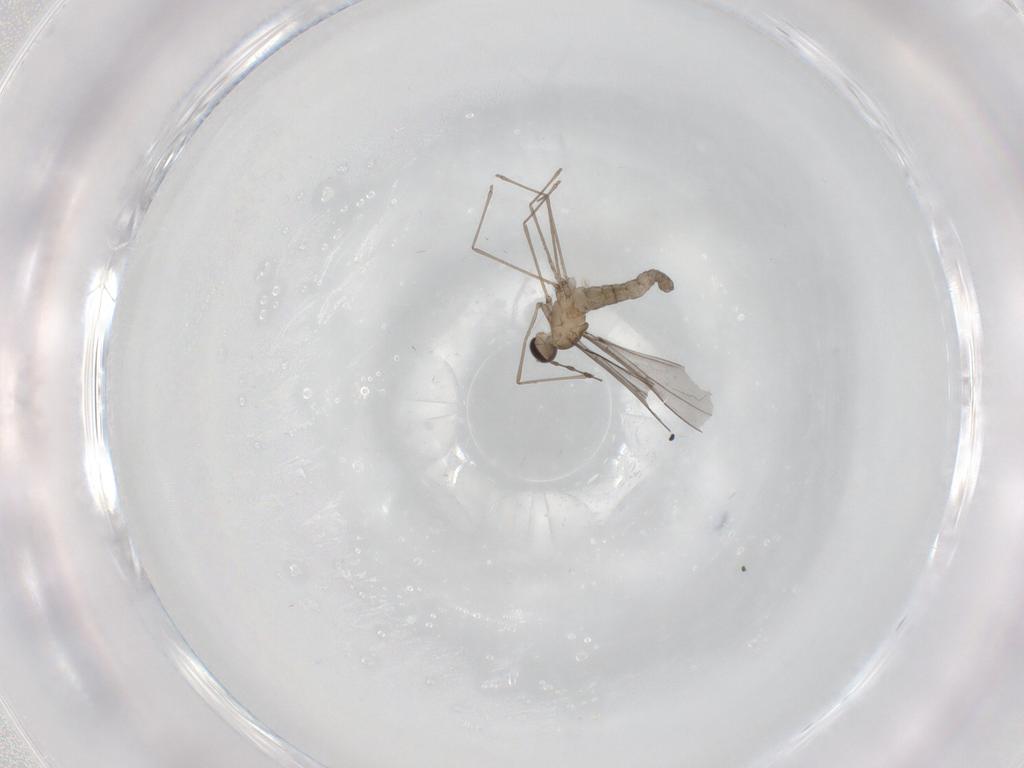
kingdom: Animalia
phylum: Arthropoda
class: Insecta
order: Diptera
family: Cecidomyiidae
